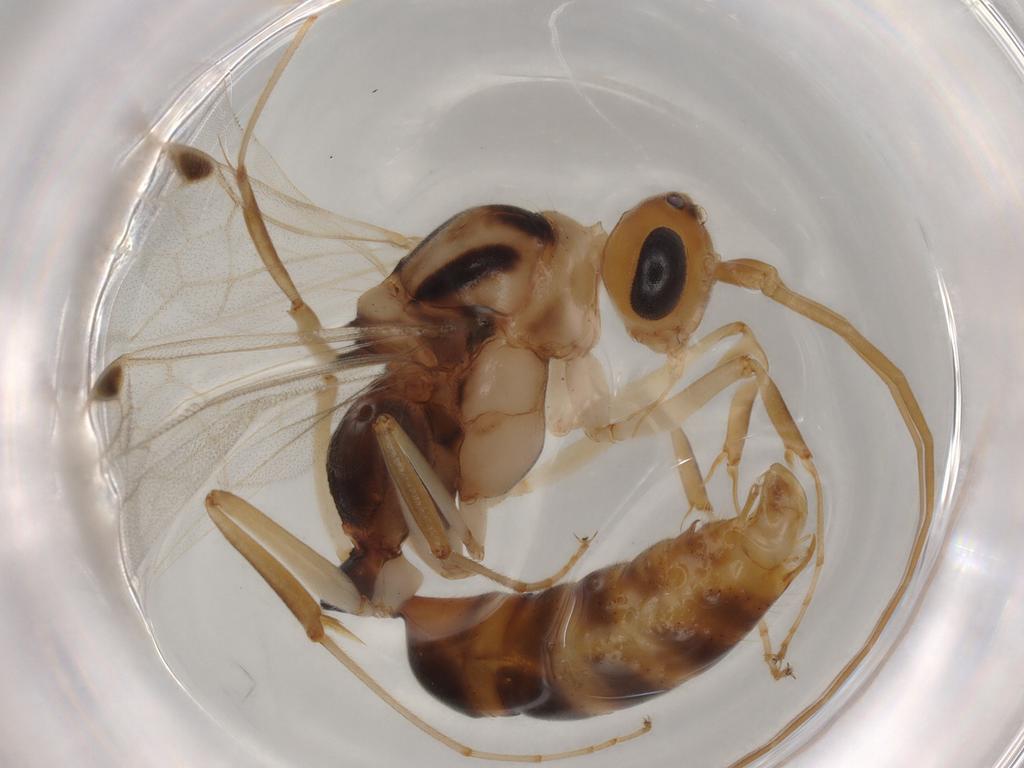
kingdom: Animalia
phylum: Arthropoda
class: Insecta
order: Hymenoptera
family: Formicidae
